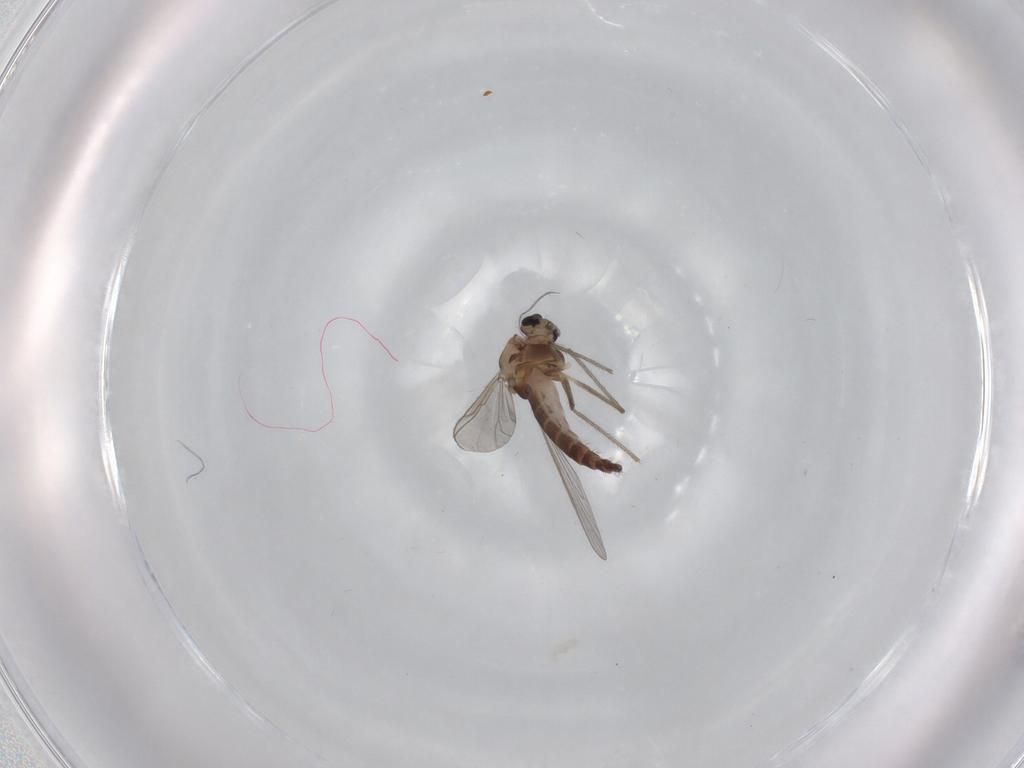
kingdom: Animalia
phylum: Arthropoda
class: Insecta
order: Diptera
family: Chironomidae
